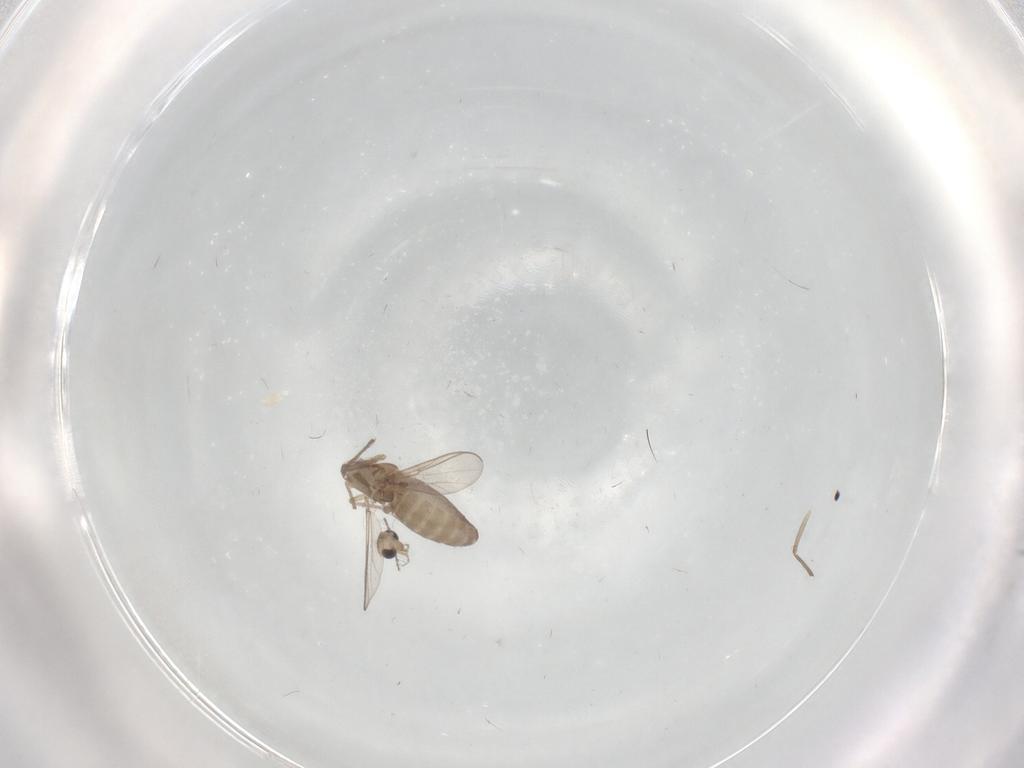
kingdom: Animalia
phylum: Arthropoda
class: Insecta
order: Diptera
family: Chironomidae
